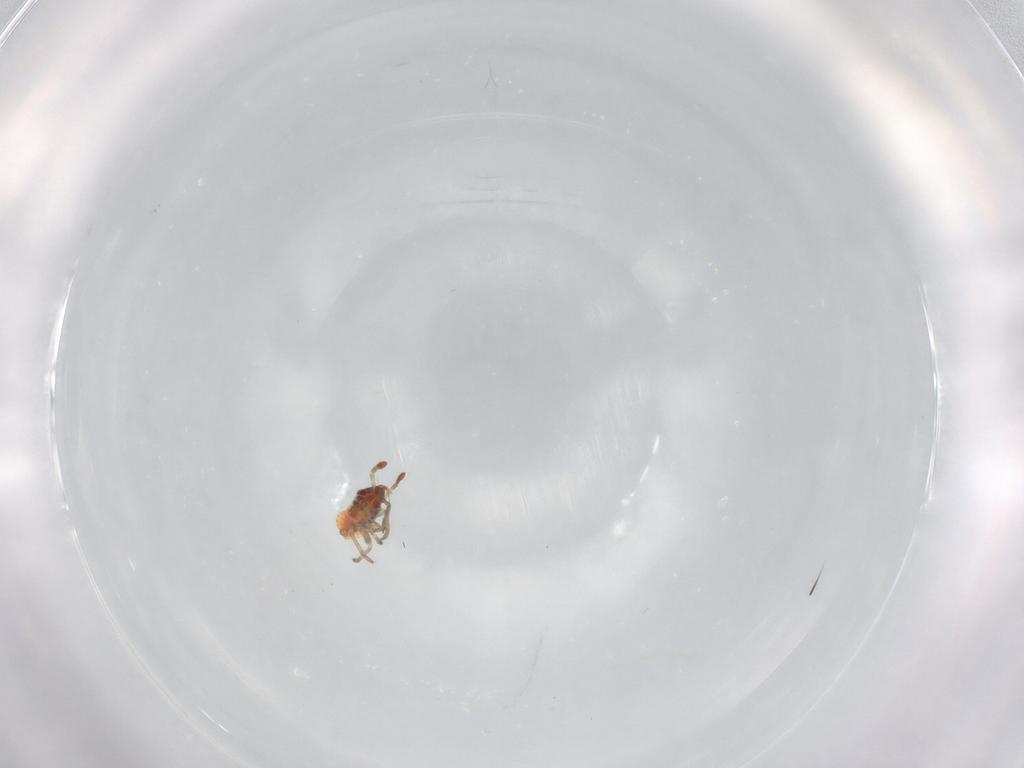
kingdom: Animalia
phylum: Arthropoda
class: Insecta
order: Hemiptera
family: Lygaeidae
